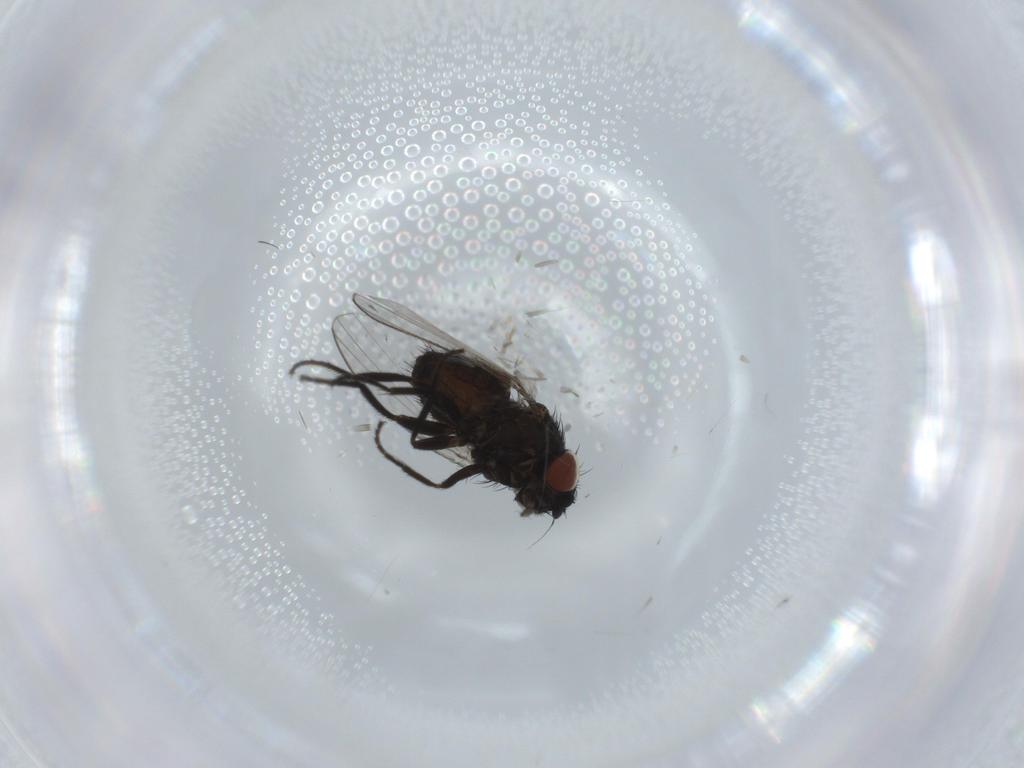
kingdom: Animalia
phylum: Arthropoda
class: Insecta
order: Diptera
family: Milichiidae
